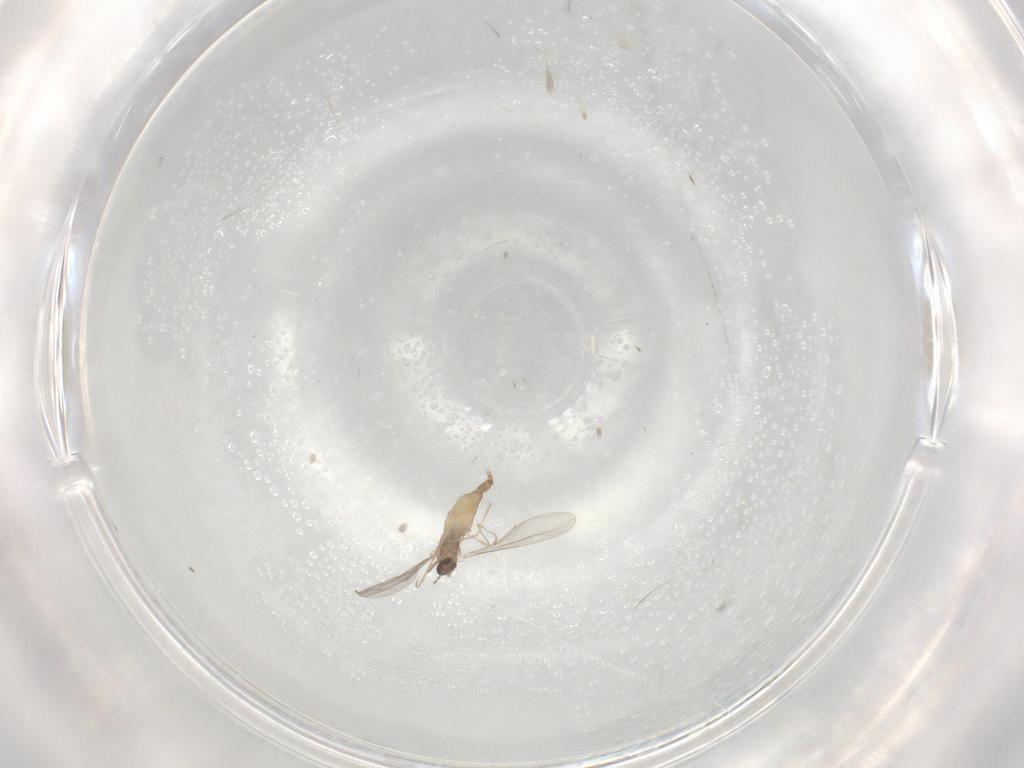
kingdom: Animalia
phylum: Arthropoda
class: Insecta
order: Diptera
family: Cecidomyiidae
